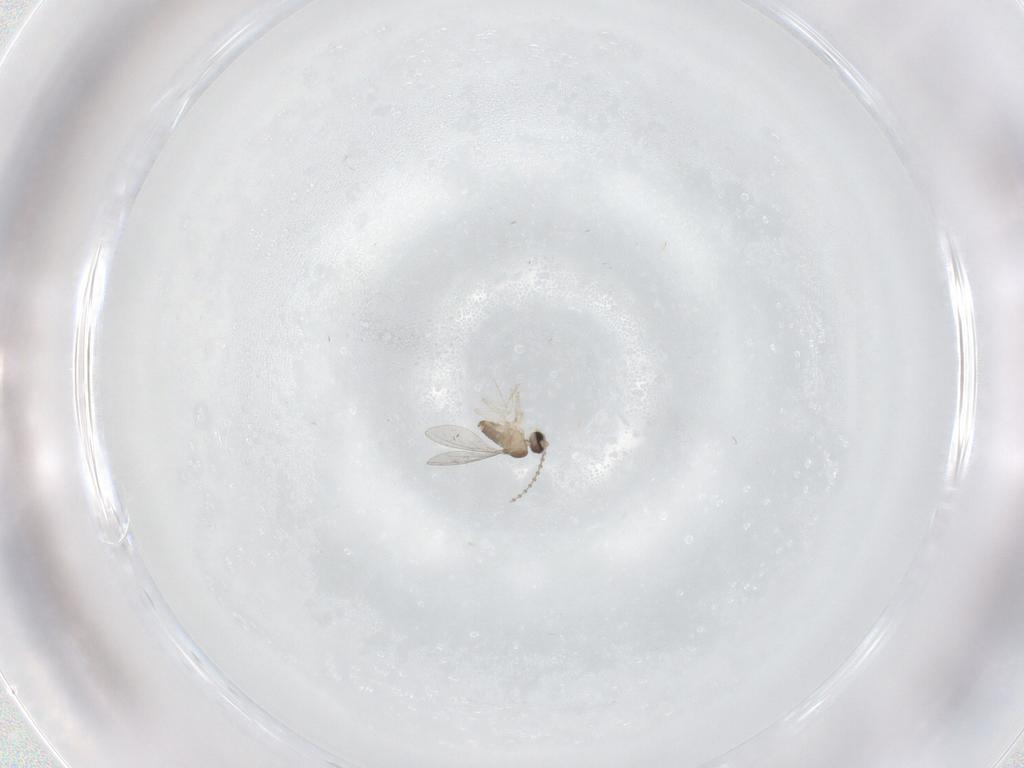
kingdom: Animalia
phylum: Arthropoda
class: Insecta
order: Diptera
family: Cecidomyiidae
